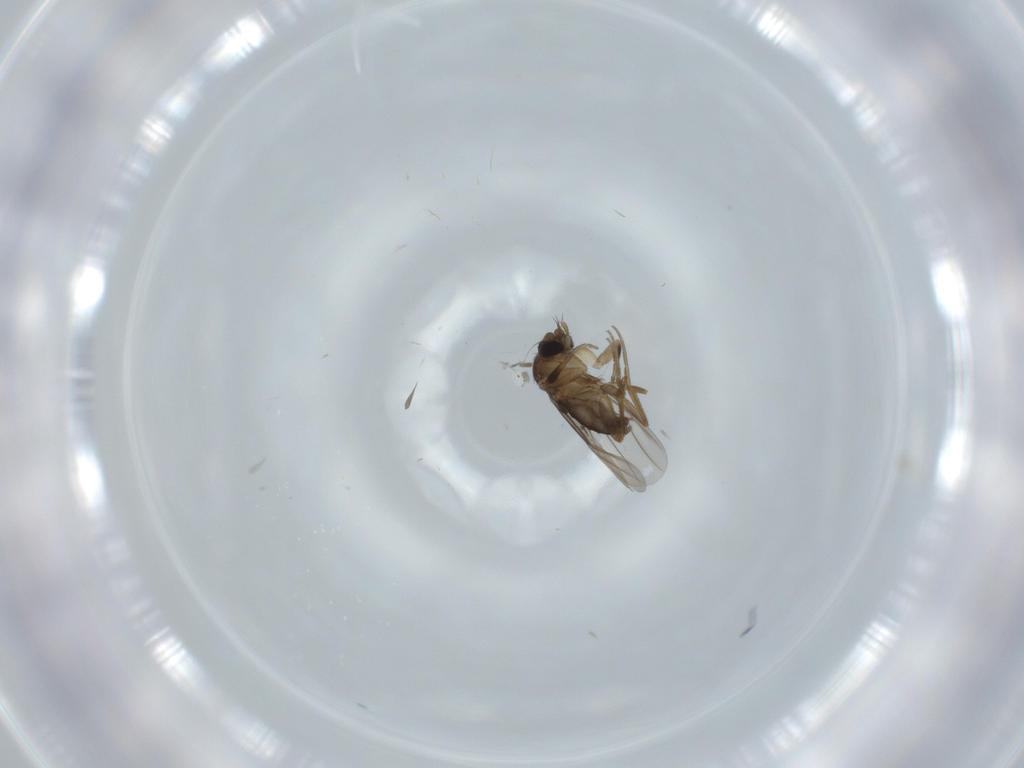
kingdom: Animalia
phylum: Arthropoda
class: Insecta
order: Diptera
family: Phoridae
